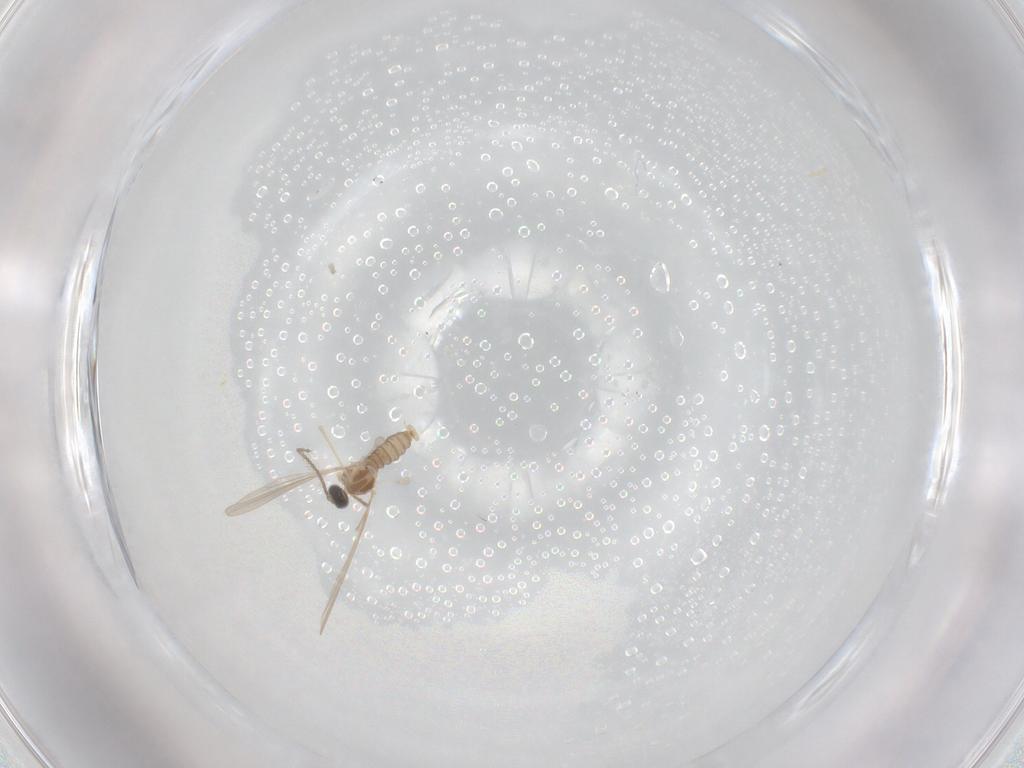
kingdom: Animalia
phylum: Arthropoda
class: Insecta
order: Diptera
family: Cecidomyiidae
